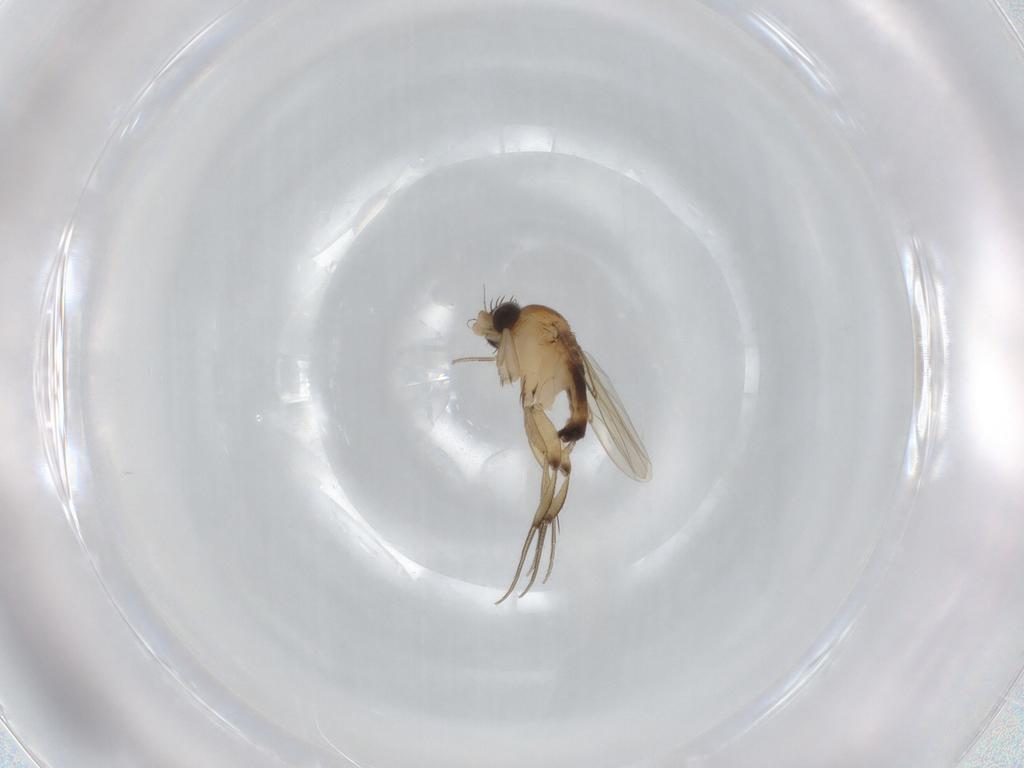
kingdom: Animalia
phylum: Arthropoda
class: Insecta
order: Diptera
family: Phoridae
